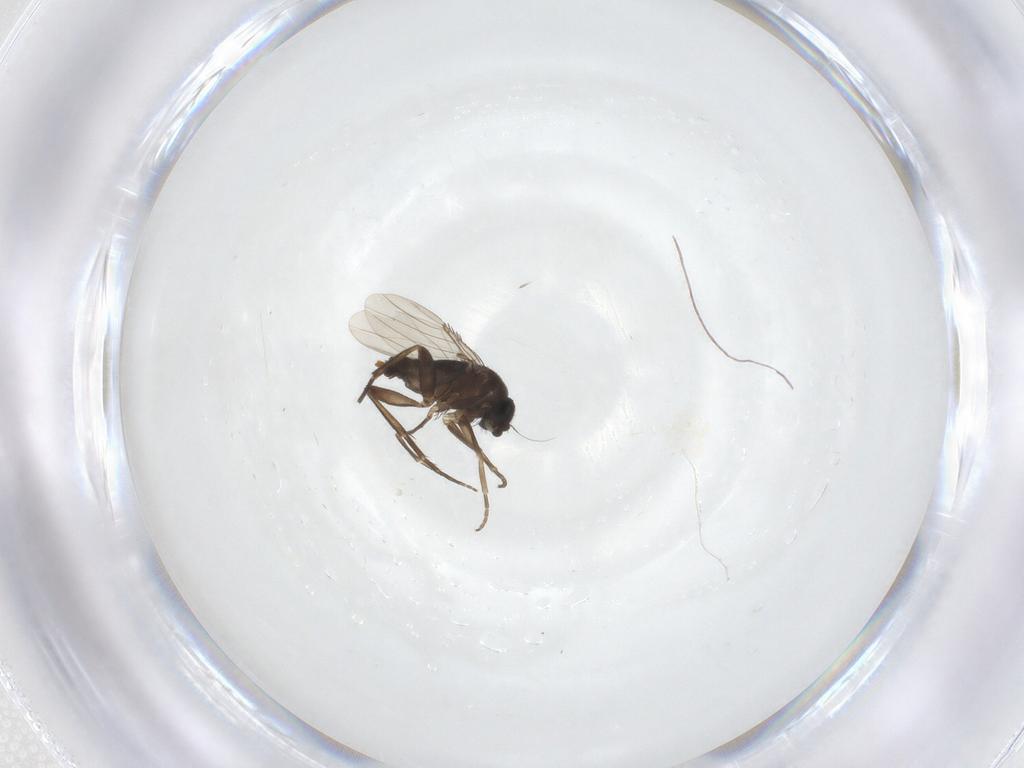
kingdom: Animalia
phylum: Arthropoda
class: Insecta
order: Diptera
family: Phoridae
